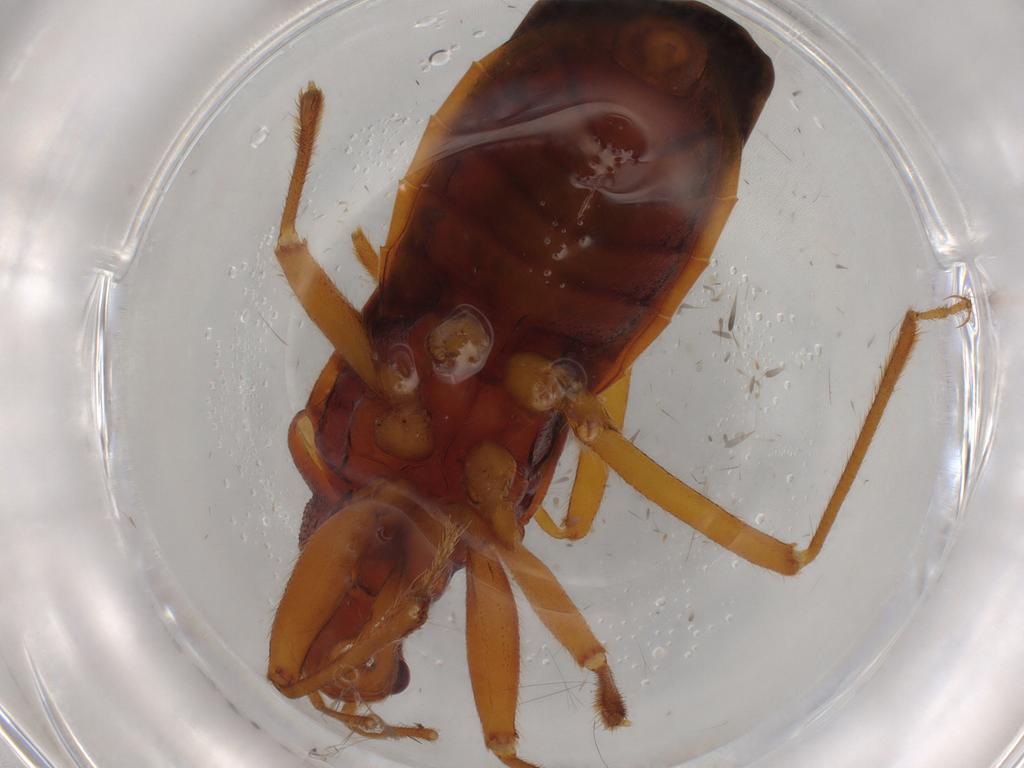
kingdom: Animalia
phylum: Arthropoda
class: Insecta
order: Hemiptera
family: Reduviidae
